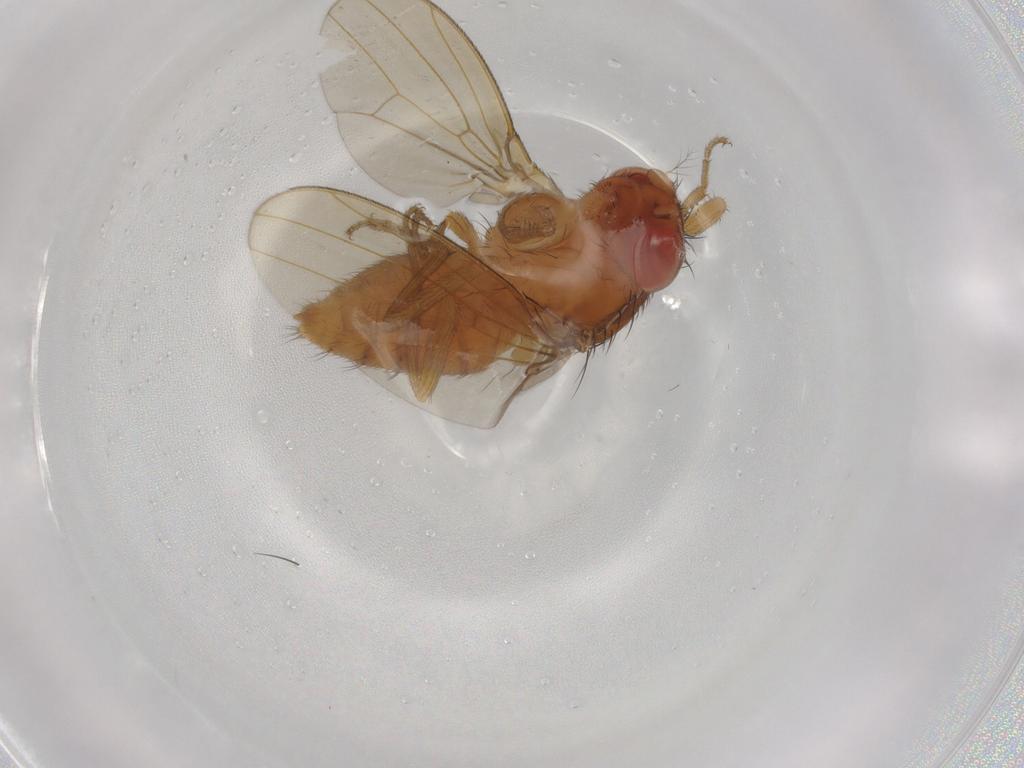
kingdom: Animalia
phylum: Arthropoda
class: Insecta
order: Diptera
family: Drosophilidae
